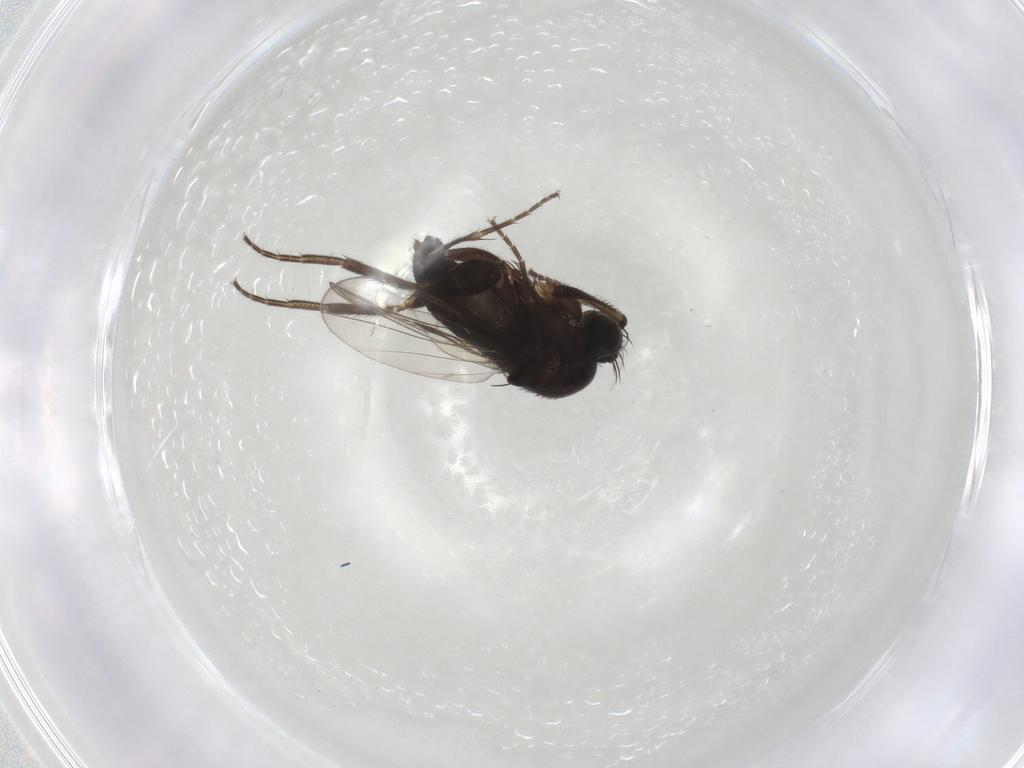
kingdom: Animalia
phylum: Arthropoda
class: Insecta
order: Diptera
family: Phoridae
